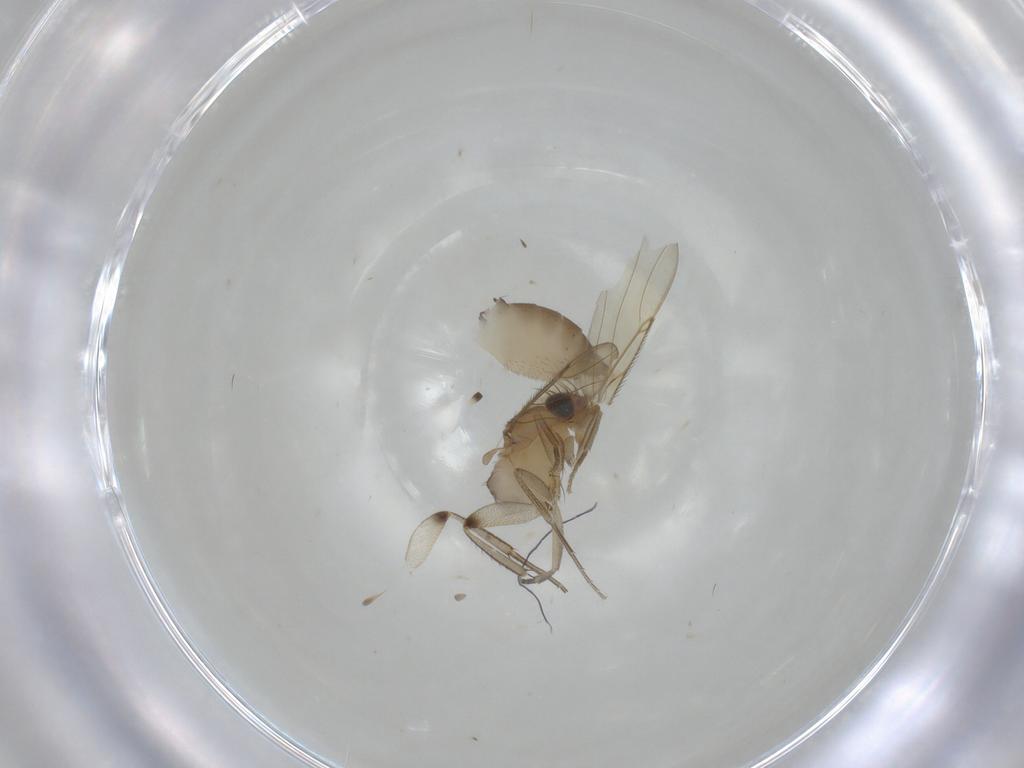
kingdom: Animalia
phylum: Arthropoda
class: Insecta
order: Diptera
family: Phoridae
